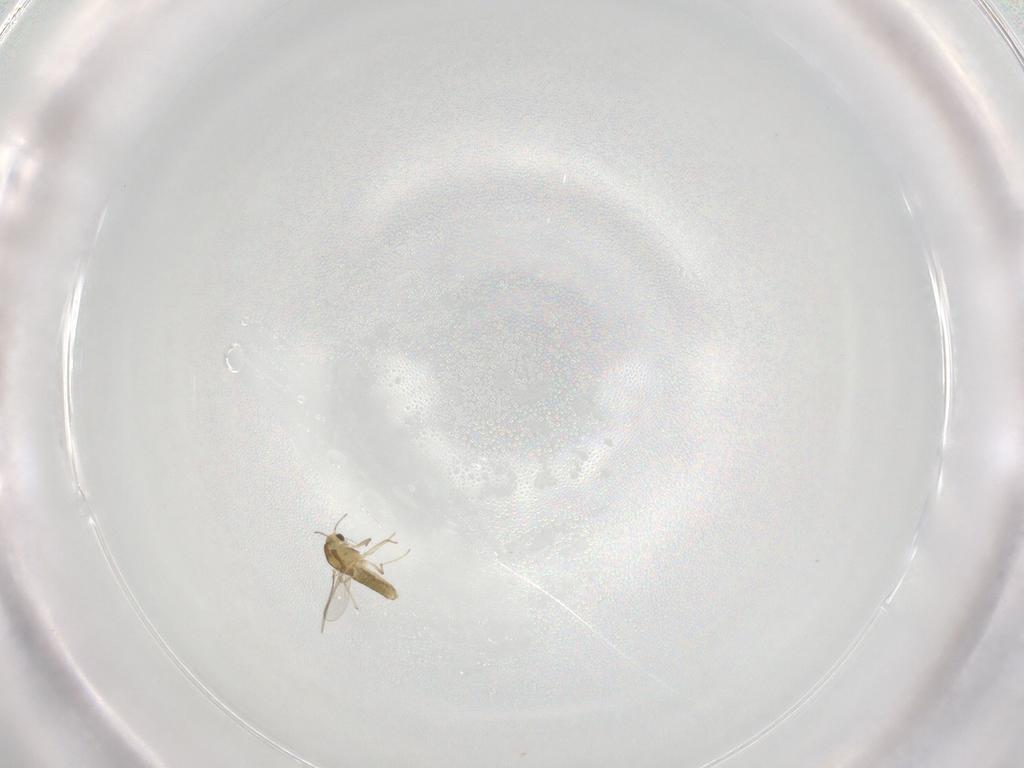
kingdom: Animalia
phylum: Arthropoda
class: Insecta
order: Diptera
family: Chironomidae
